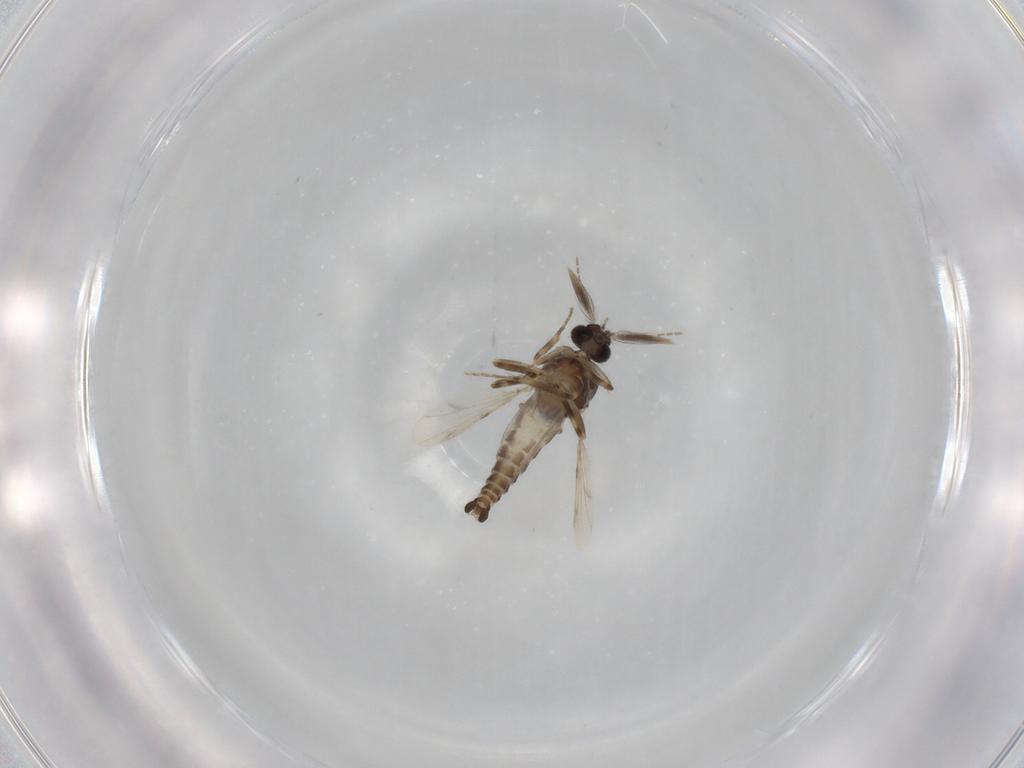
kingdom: Animalia
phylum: Arthropoda
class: Insecta
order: Diptera
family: Ceratopogonidae
